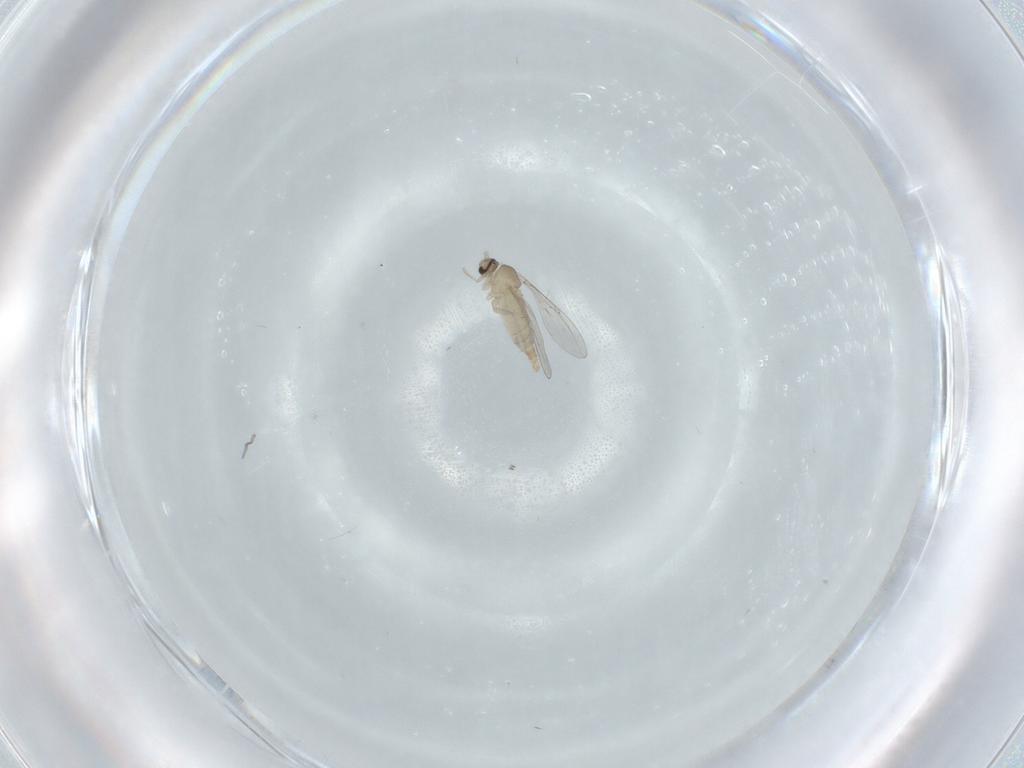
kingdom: Animalia
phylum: Arthropoda
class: Insecta
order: Diptera
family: Cecidomyiidae
